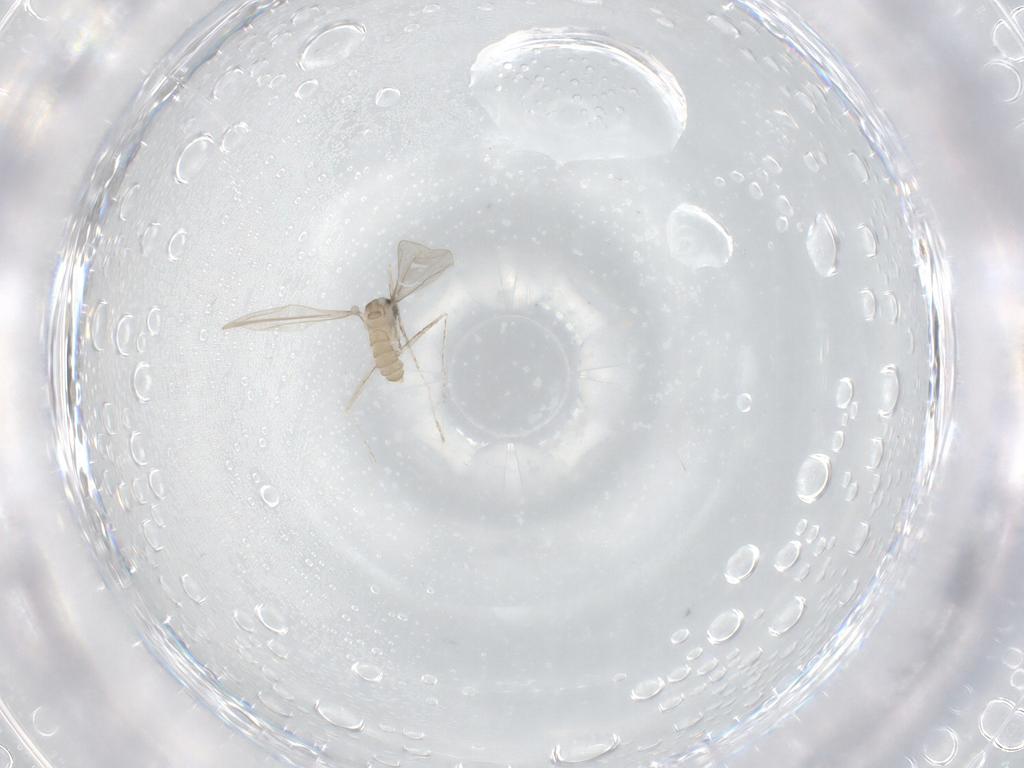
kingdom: Animalia
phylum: Arthropoda
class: Insecta
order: Diptera
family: Cecidomyiidae
